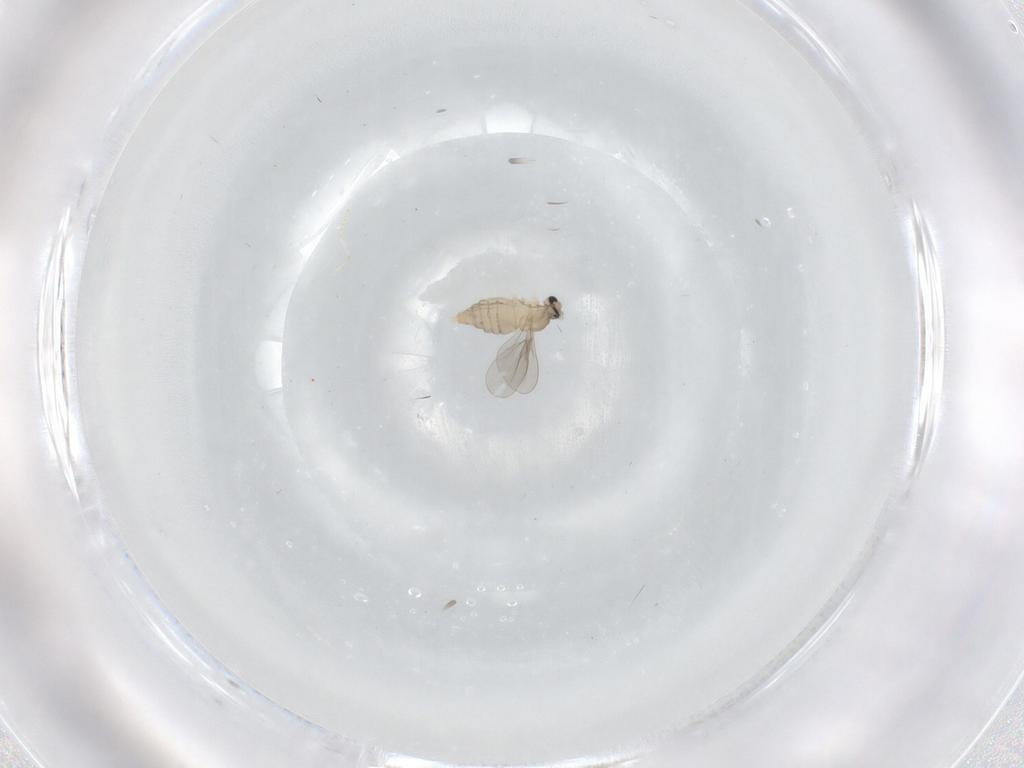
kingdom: Animalia
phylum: Arthropoda
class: Insecta
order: Diptera
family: Cecidomyiidae
